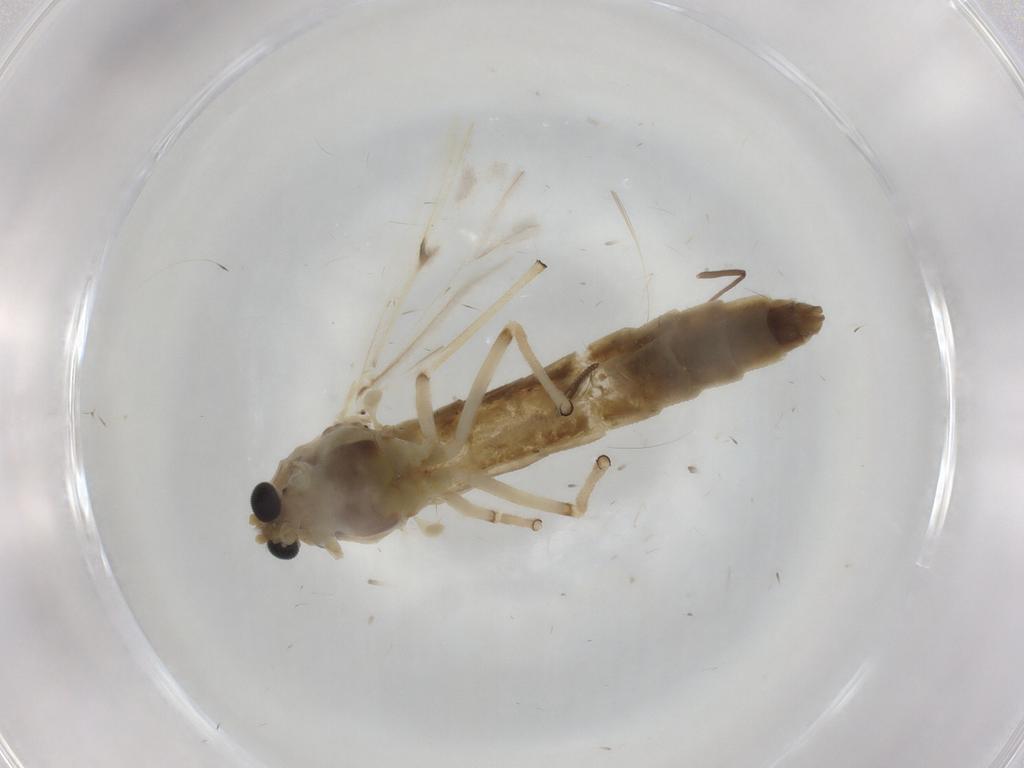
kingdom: Animalia
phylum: Arthropoda
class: Insecta
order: Diptera
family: Chironomidae
